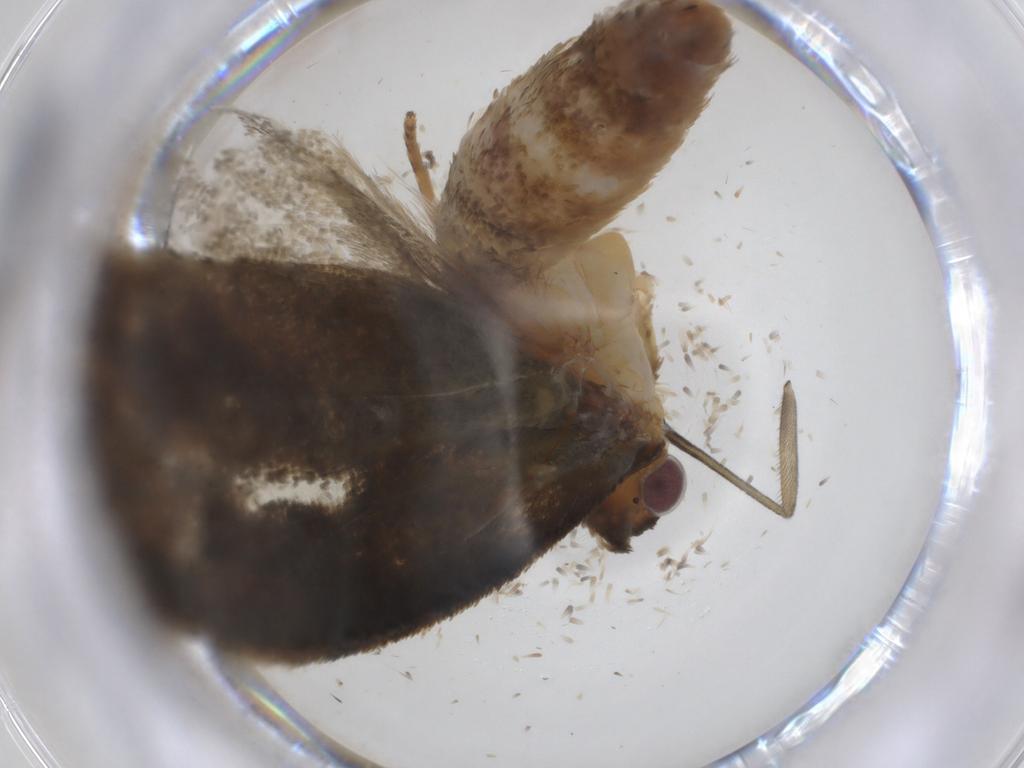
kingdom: Animalia
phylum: Arthropoda
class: Insecta
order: Lepidoptera
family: Tortricidae
